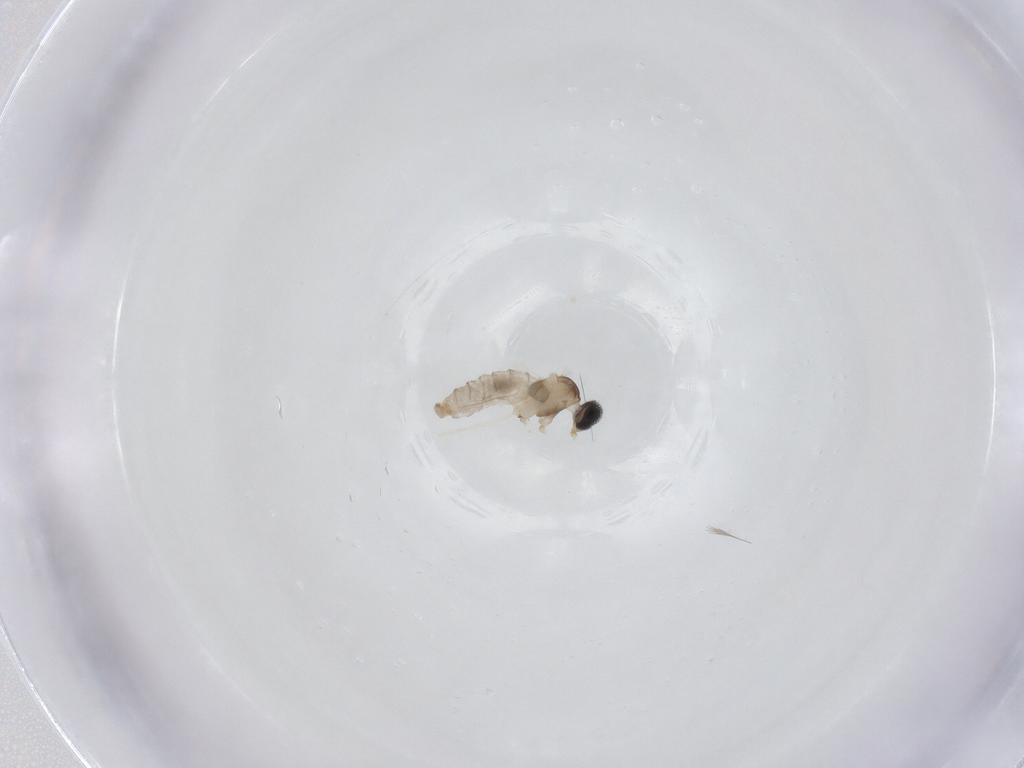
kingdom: Animalia
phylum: Arthropoda
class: Insecta
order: Diptera
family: Cecidomyiidae
